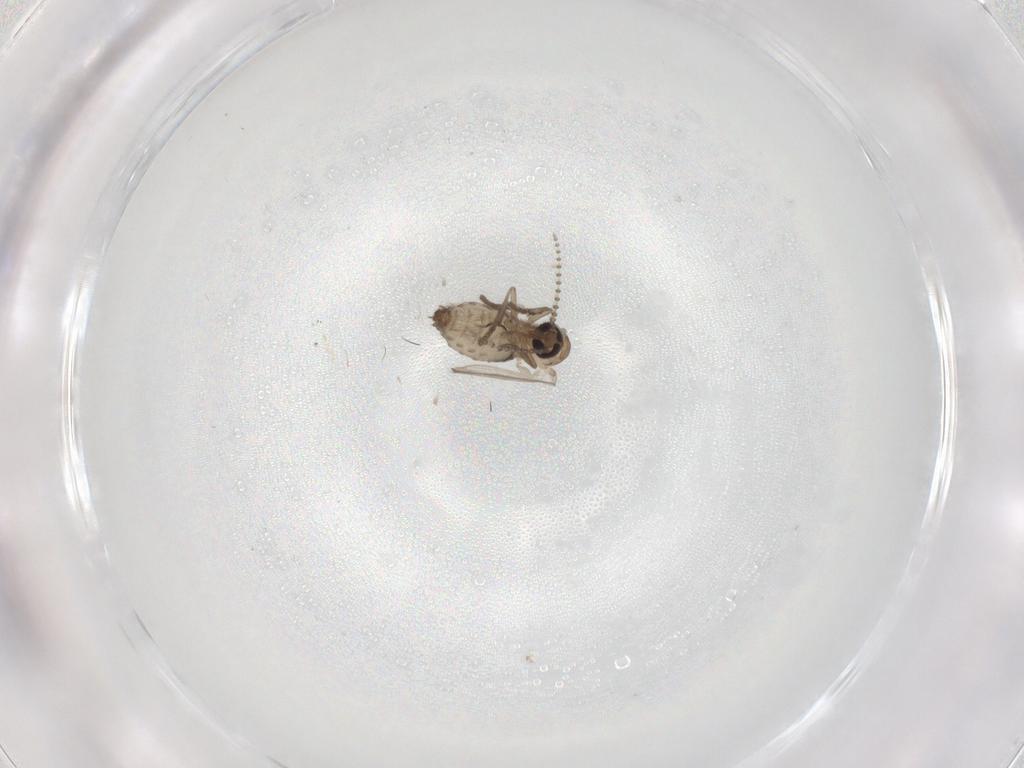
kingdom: Animalia
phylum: Arthropoda
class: Insecta
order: Diptera
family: Psychodidae
